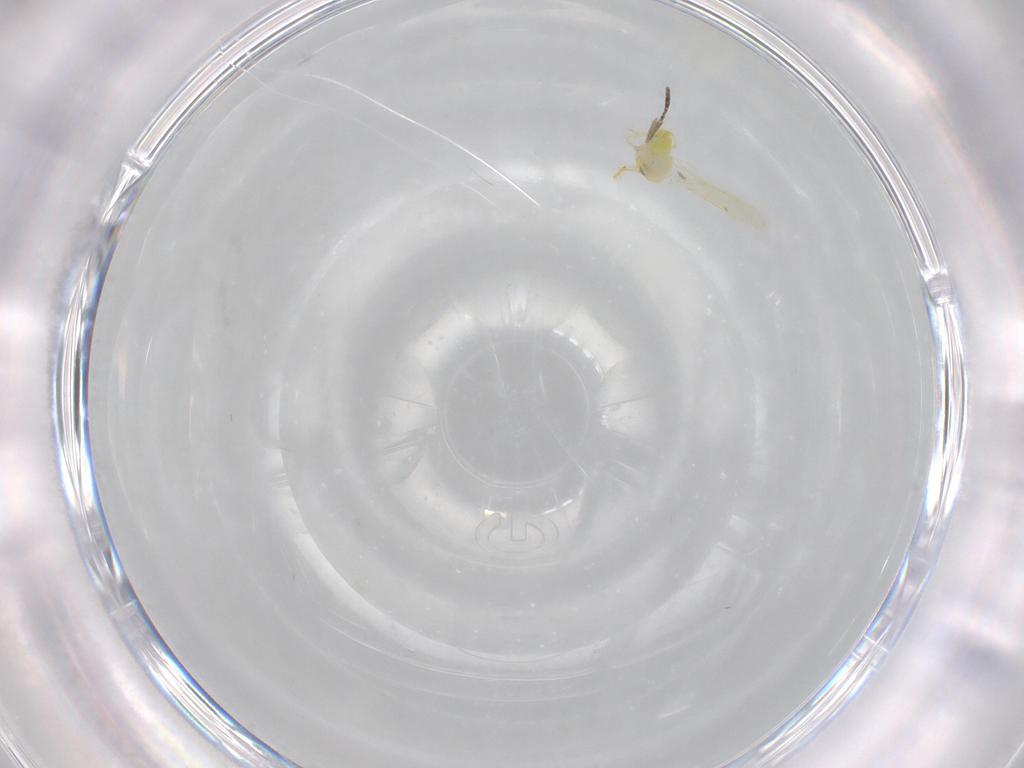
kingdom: Animalia
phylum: Arthropoda
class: Insecta
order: Hemiptera
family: Aleyrodidae
